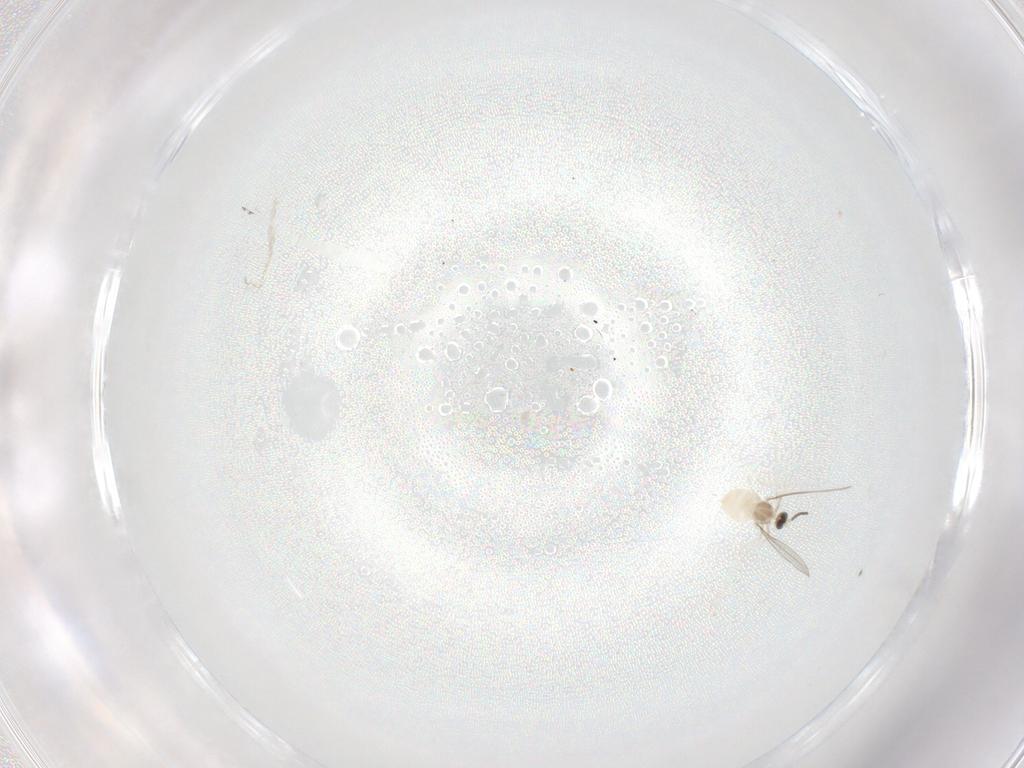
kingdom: Animalia
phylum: Arthropoda
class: Insecta
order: Diptera
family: Cecidomyiidae
